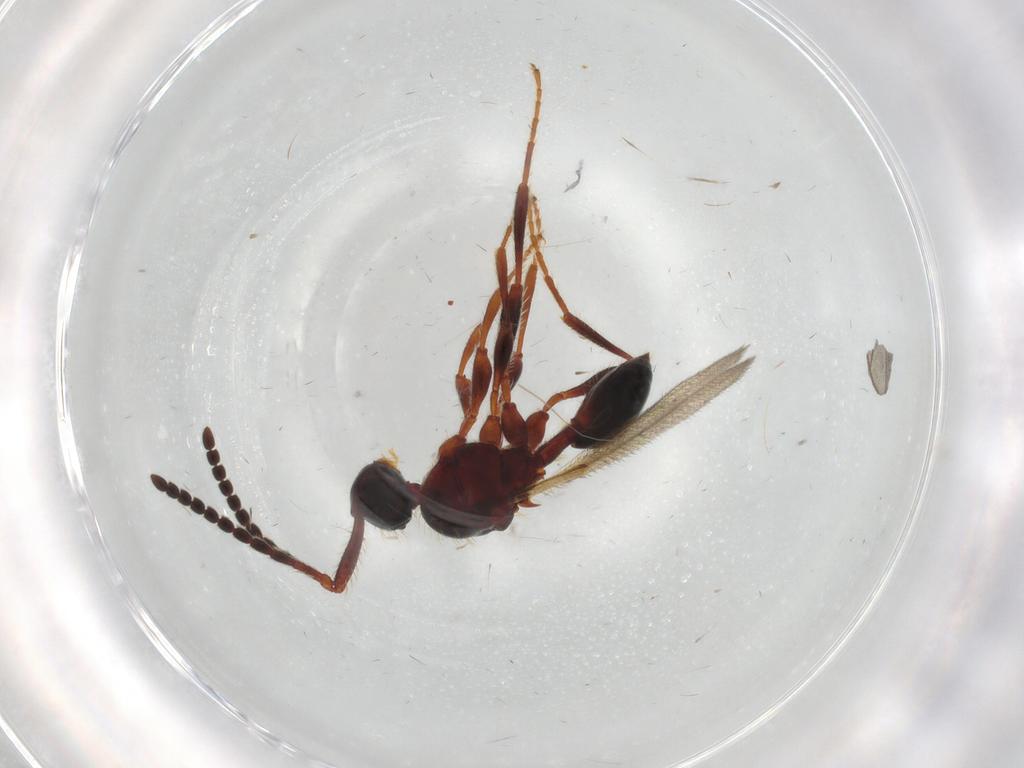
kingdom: Animalia
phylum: Arthropoda
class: Insecta
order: Hymenoptera
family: Diapriidae
